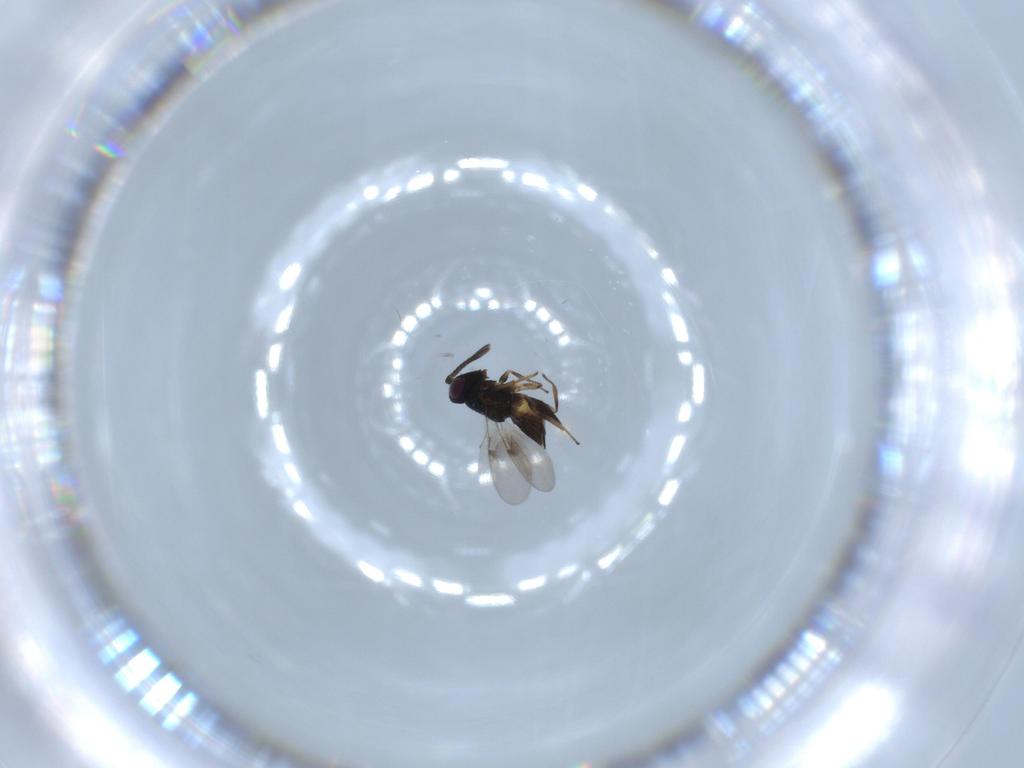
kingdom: Animalia
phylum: Arthropoda
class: Insecta
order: Hymenoptera
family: Encyrtidae
